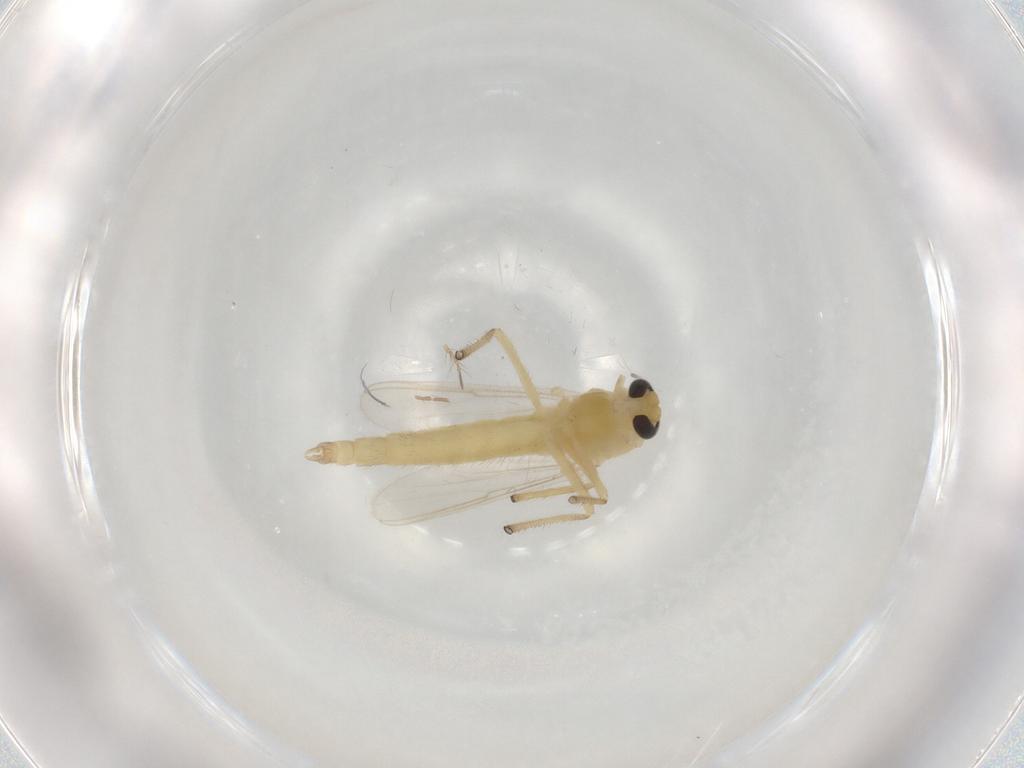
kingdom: Animalia
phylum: Arthropoda
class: Insecta
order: Diptera
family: Chironomidae
